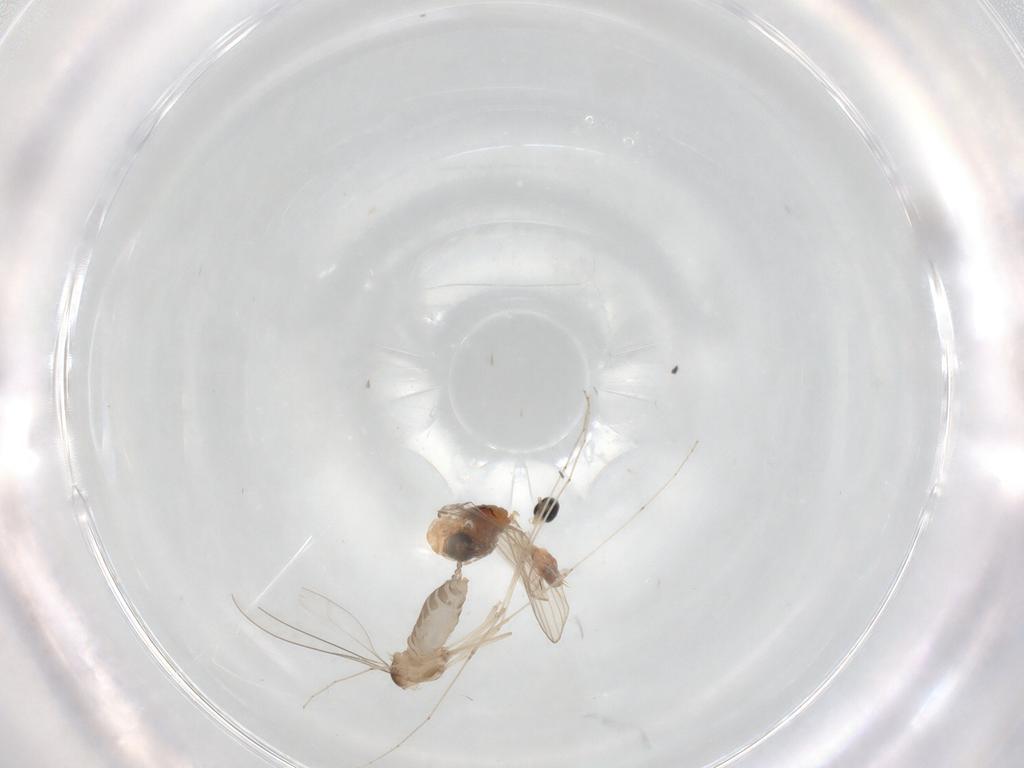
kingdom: Animalia
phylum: Arthropoda
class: Insecta
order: Diptera
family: Psychodidae
